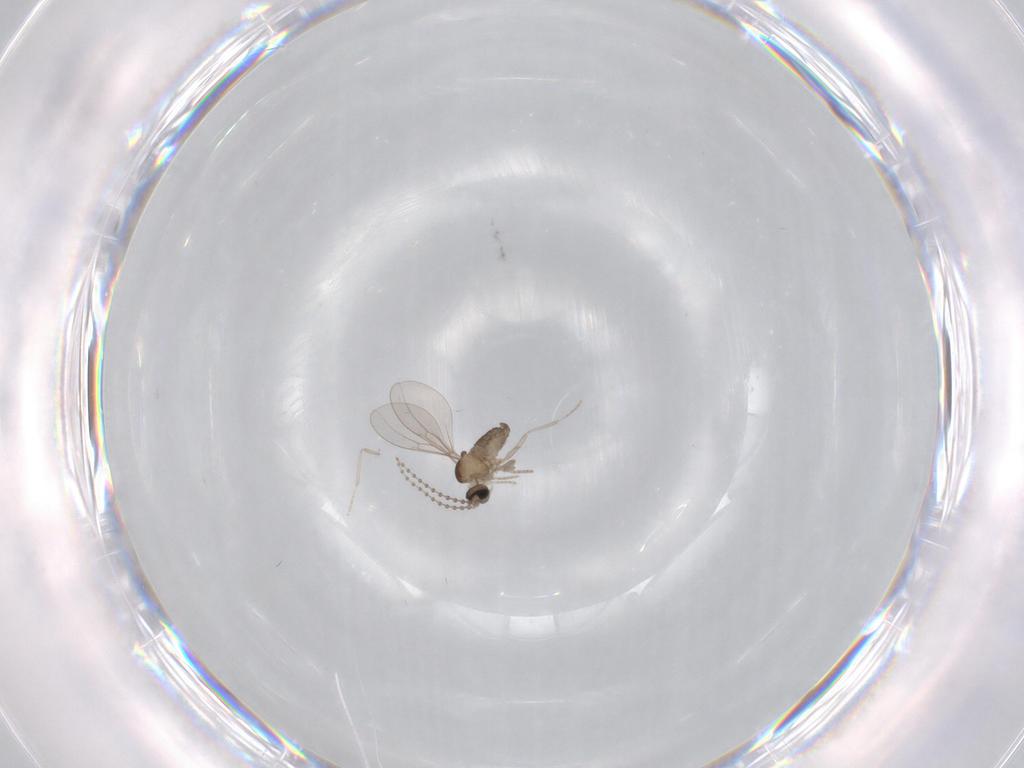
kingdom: Animalia
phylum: Arthropoda
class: Insecta
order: Diptera
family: Cecidomyiidae
